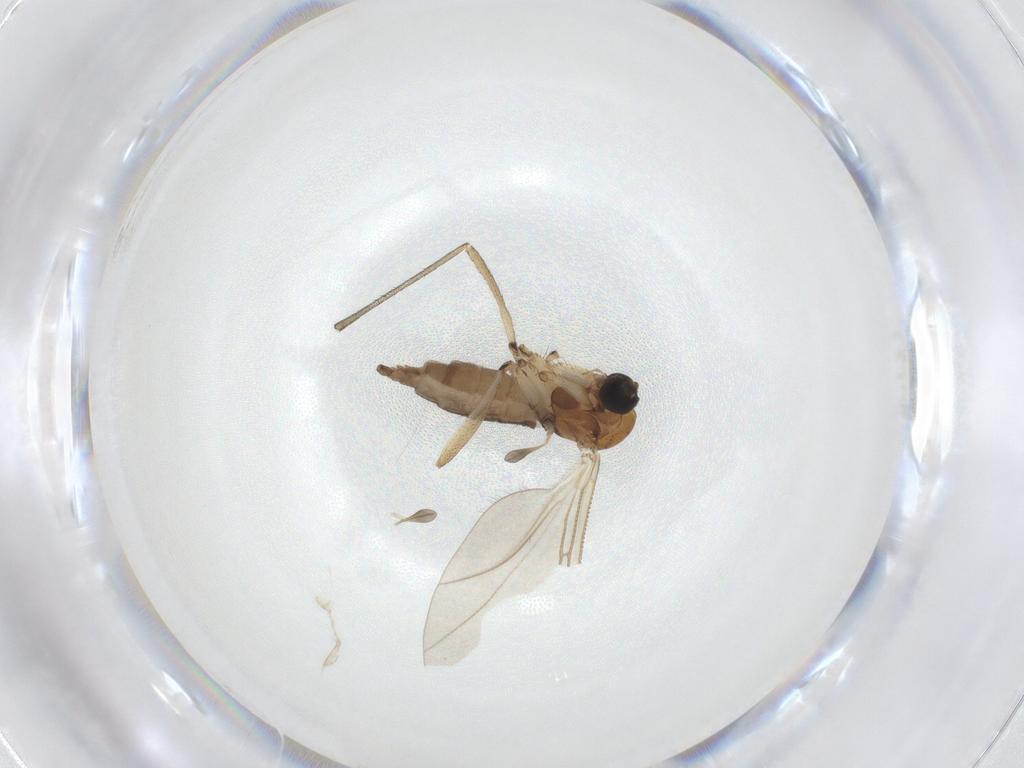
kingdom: Animalia
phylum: Arthropoda
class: Insecta
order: Diptera
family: Sciaridae
